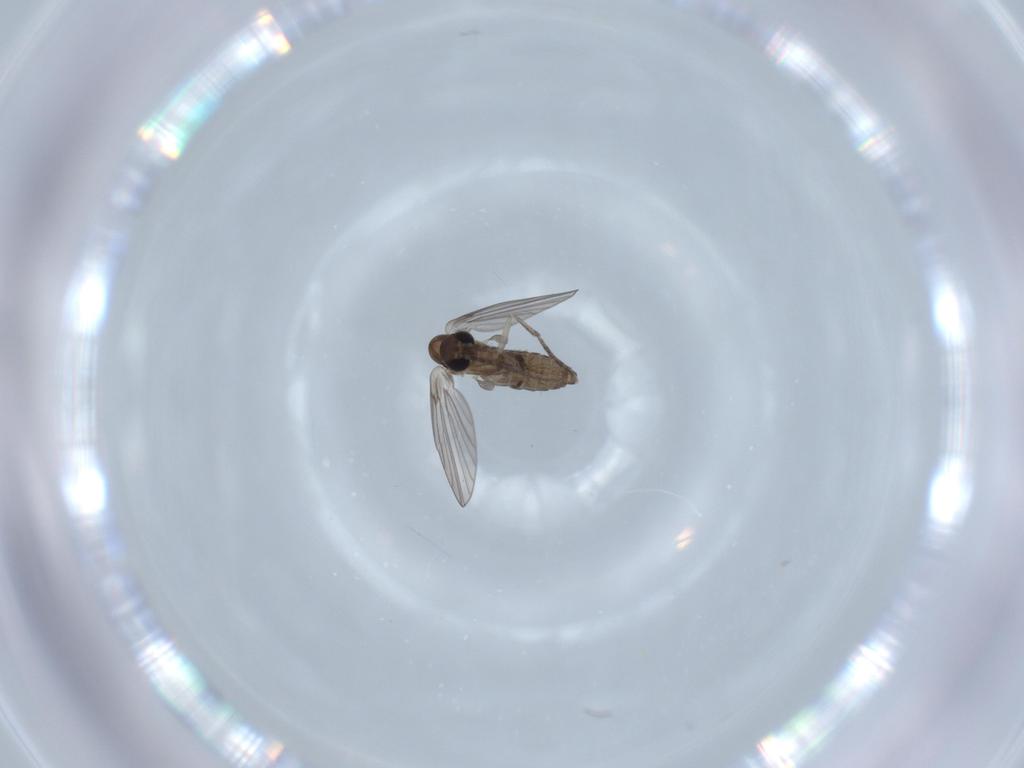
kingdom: Animalia
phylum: Arthropoda
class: Insecta
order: Diptera
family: Psychodidae
